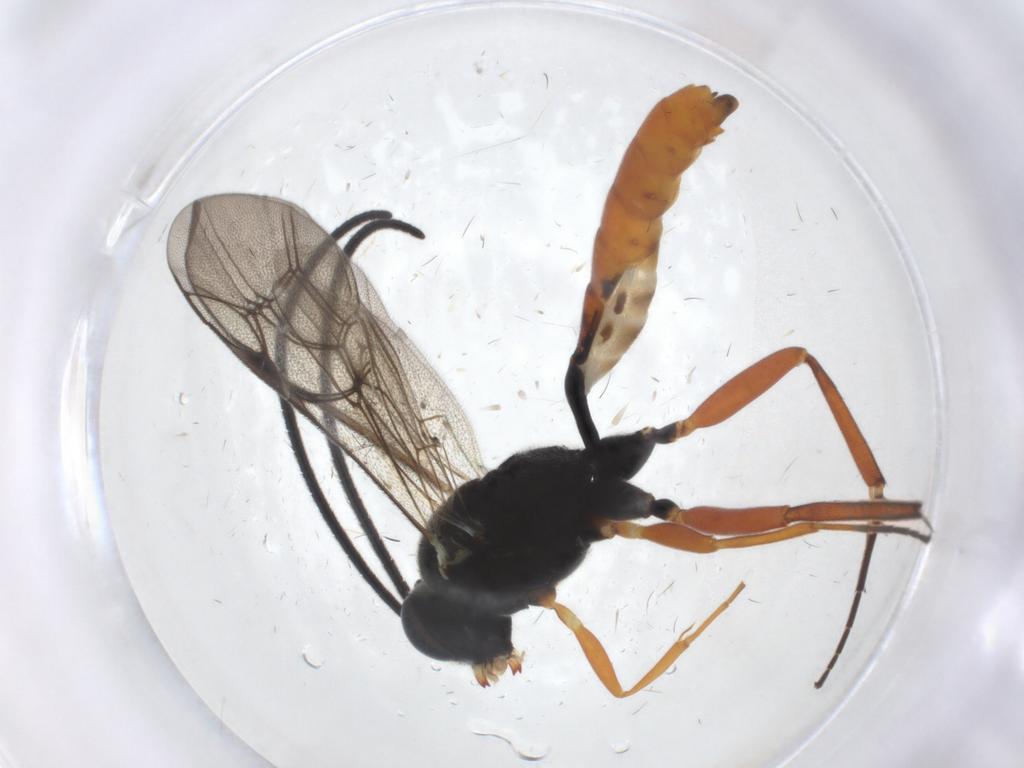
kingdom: Animalia
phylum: Arthropoda
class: Insecta
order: Hymenoptera
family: Ichneumonidae
